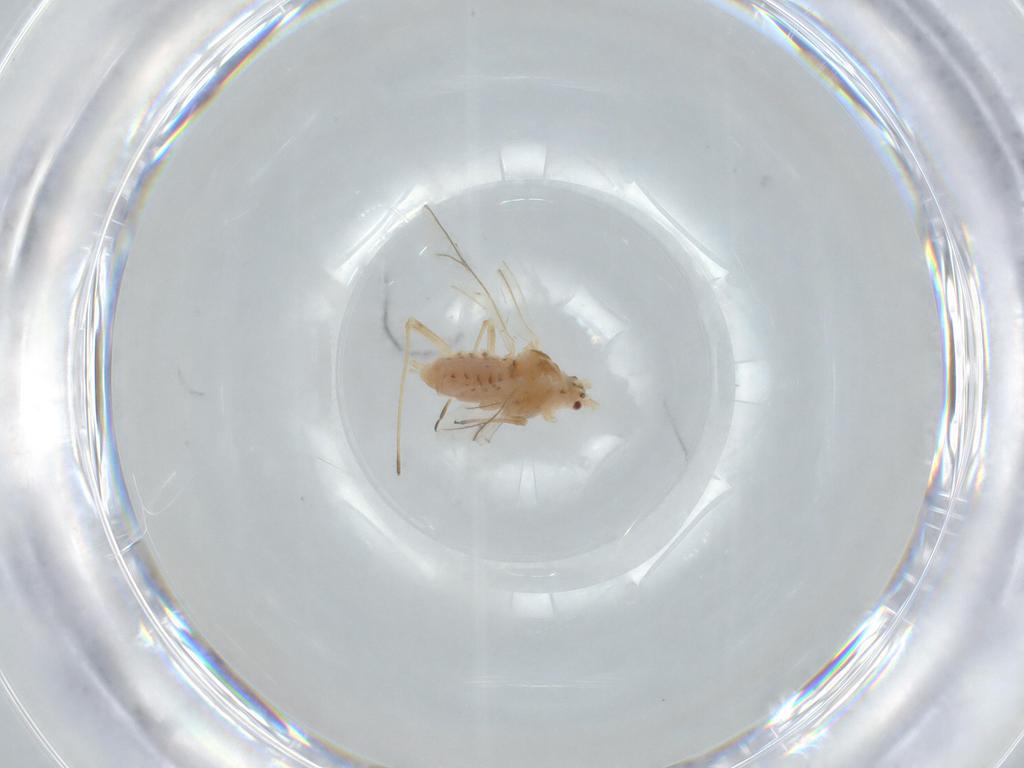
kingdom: Animalia
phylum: Arthropoda
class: Insecta
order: Hemiptera
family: Aphididae
